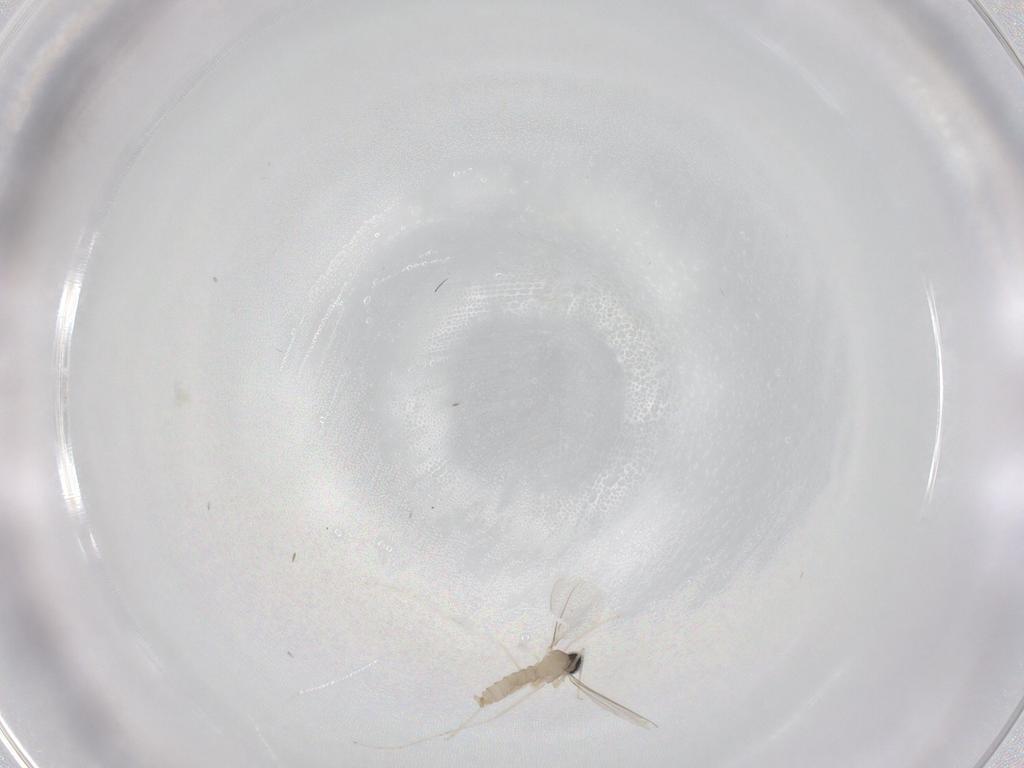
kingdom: Animalia
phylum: Arthropoda
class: Insecta
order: Diptera
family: Cecidomyiidae
